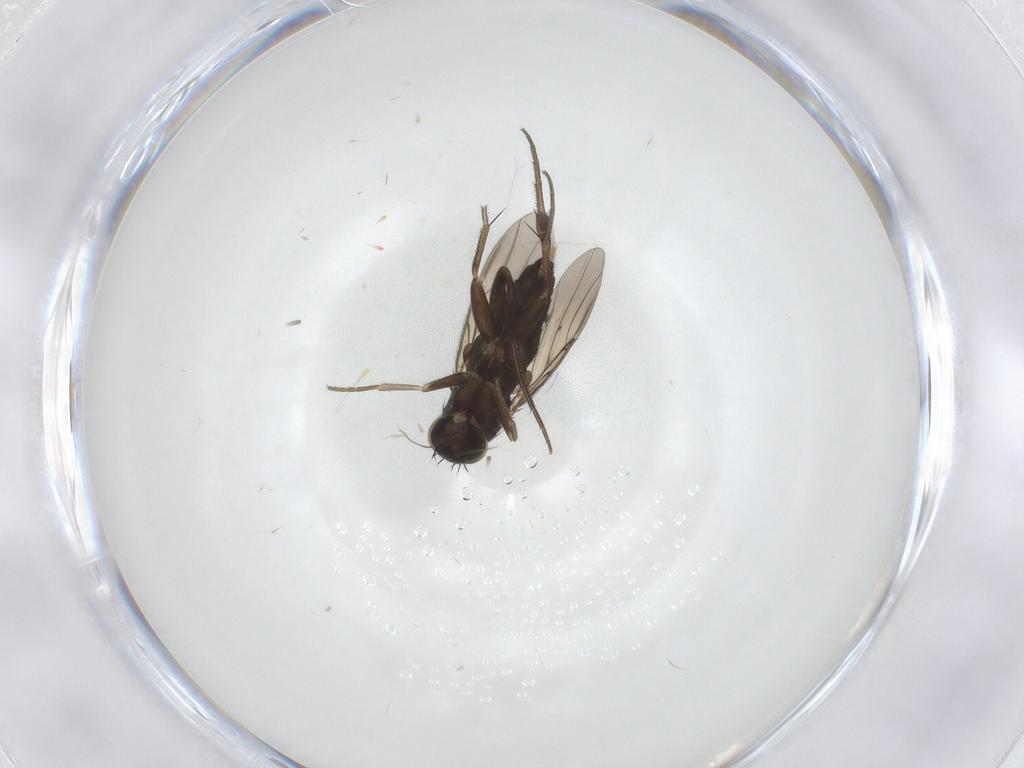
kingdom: Animalia
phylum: Arthropoda
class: Insecta
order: Diptera
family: Phoridae
